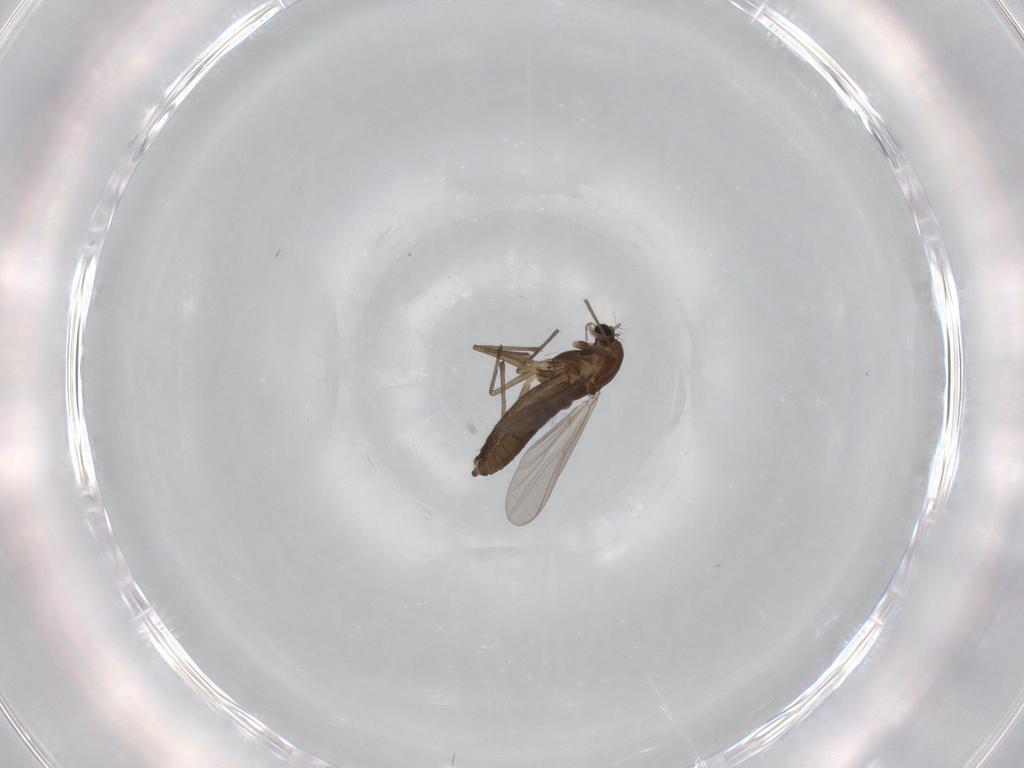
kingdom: Animalia
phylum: Arthropoda
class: Insecta
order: Diptera
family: Chironomidae
